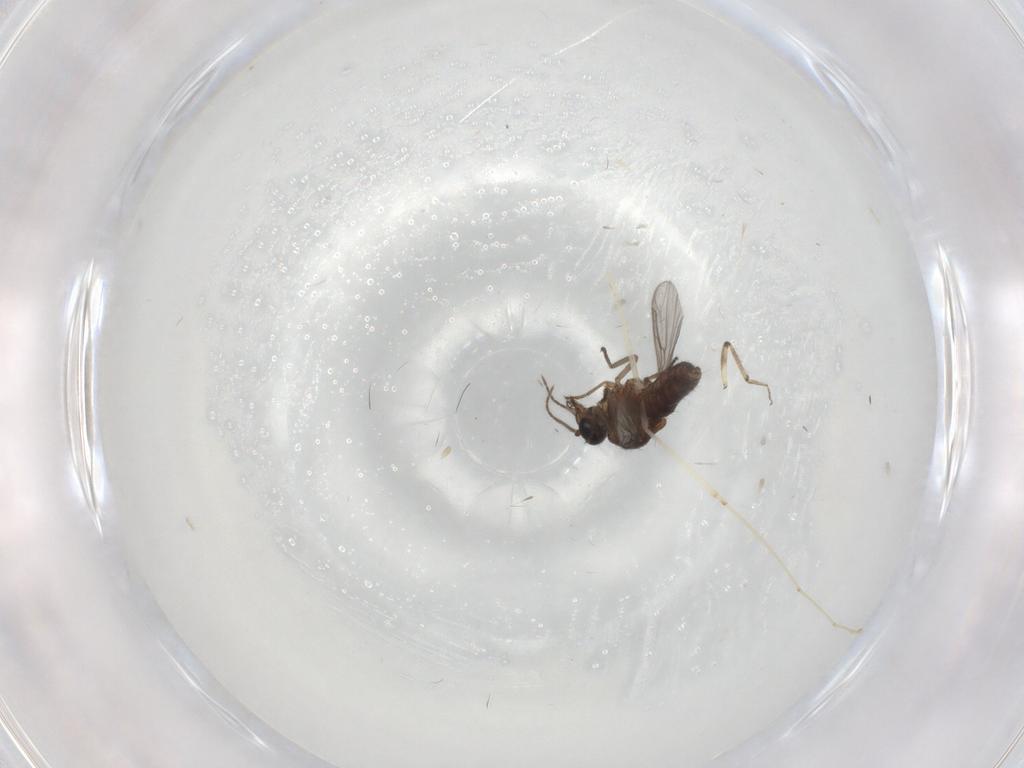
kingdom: Animalia
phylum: Arthropoda
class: Insecta
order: Diptera
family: Ceratopogonidae
